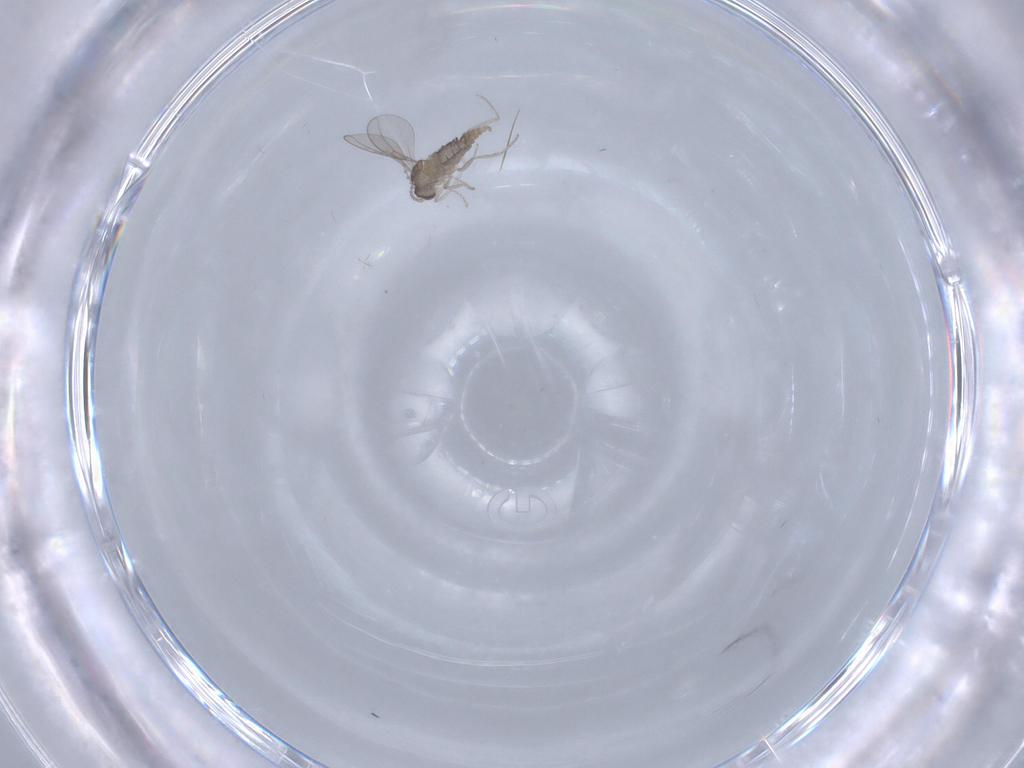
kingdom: Animalia
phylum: Arthropoda
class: Insecta
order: Diptera
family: Cecidomyiidae
